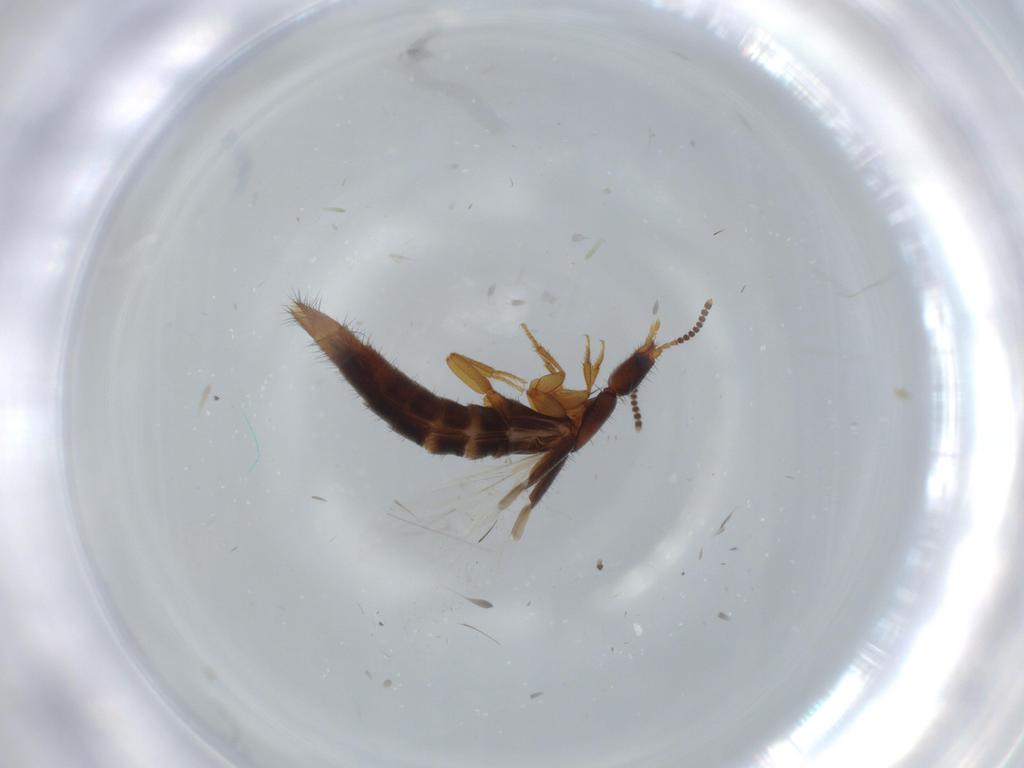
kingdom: Animalia
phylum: Arthropoda
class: Insecta
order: Coleoptera
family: Staphylinidae
